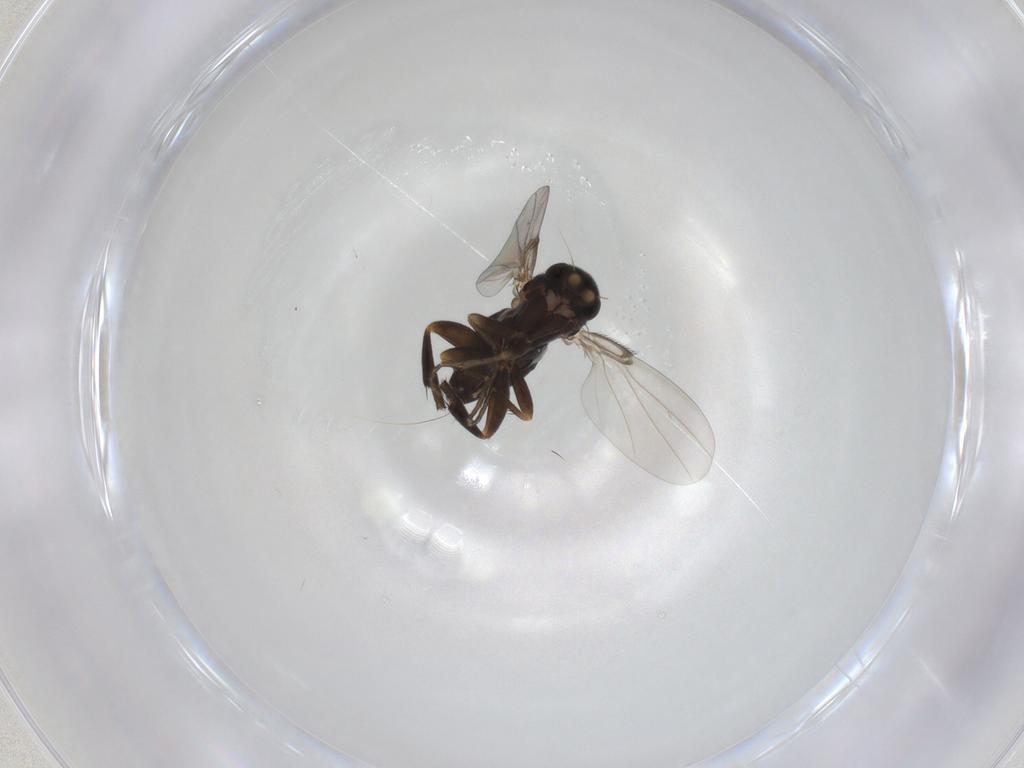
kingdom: Animalia
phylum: Arthropoda
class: Insecta
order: Diptera
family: Phoridae
